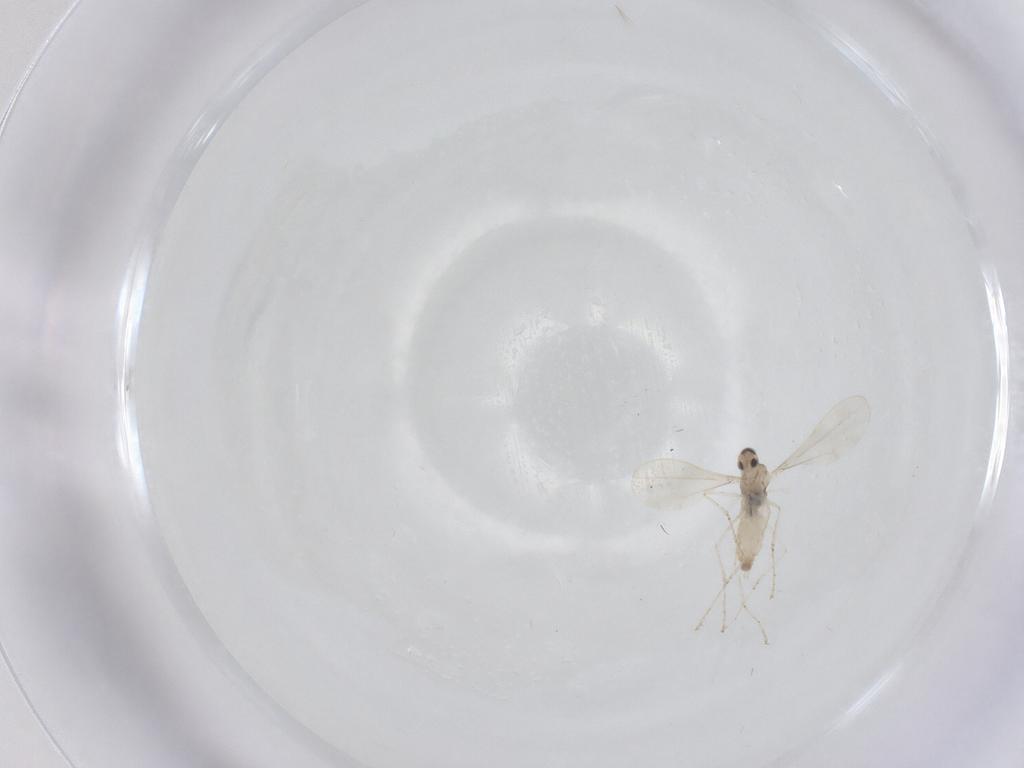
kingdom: Animalia
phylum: Arthropoda
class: Insecta
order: Diptera
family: Cecidomyiidae
